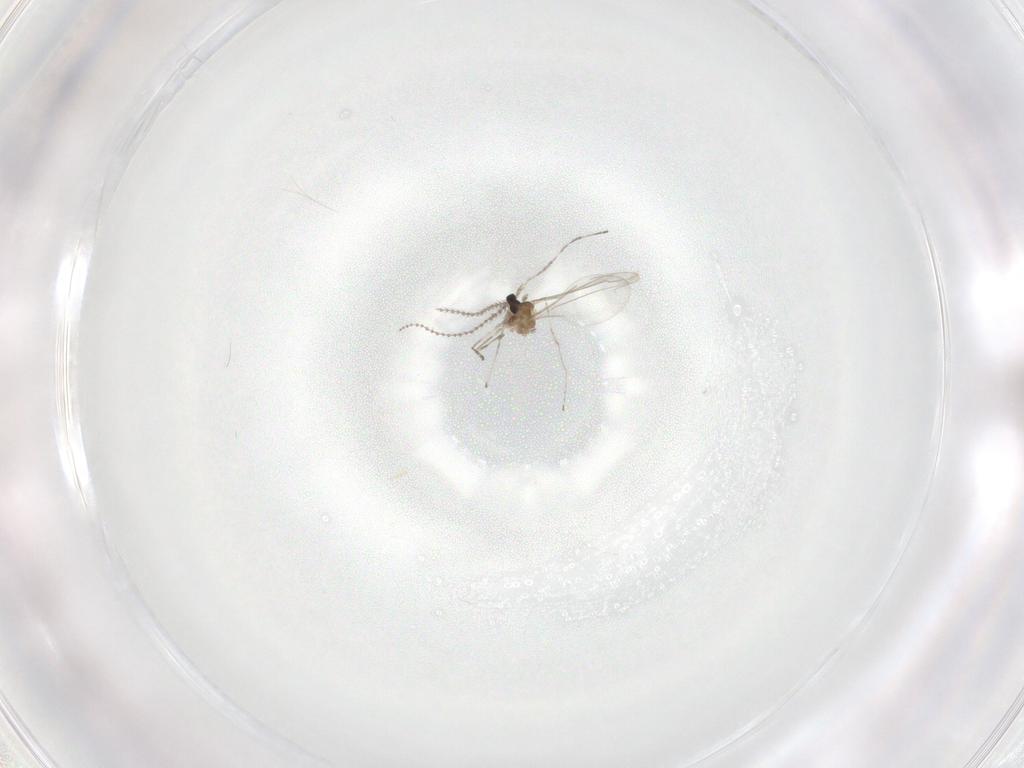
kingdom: Animalia
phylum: Arthropoda
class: Insecta
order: Diptera
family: Cecidomyiidae
